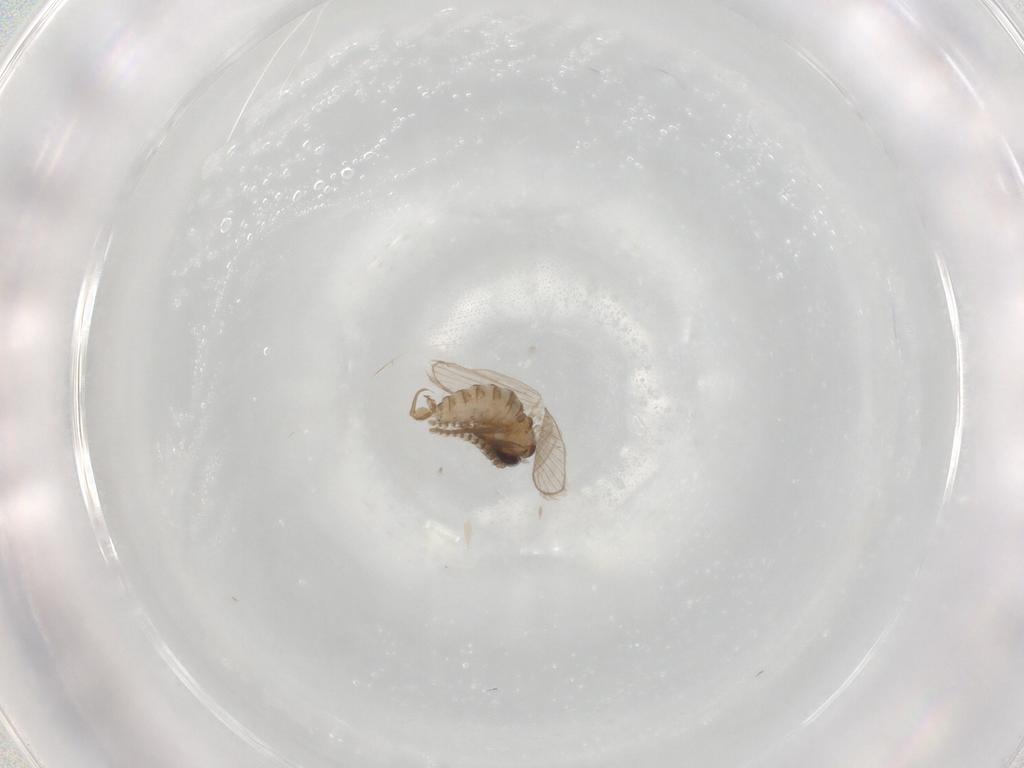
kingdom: Animalia
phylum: Arthropoda
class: Insecta
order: Diptera
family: Psychodidae
